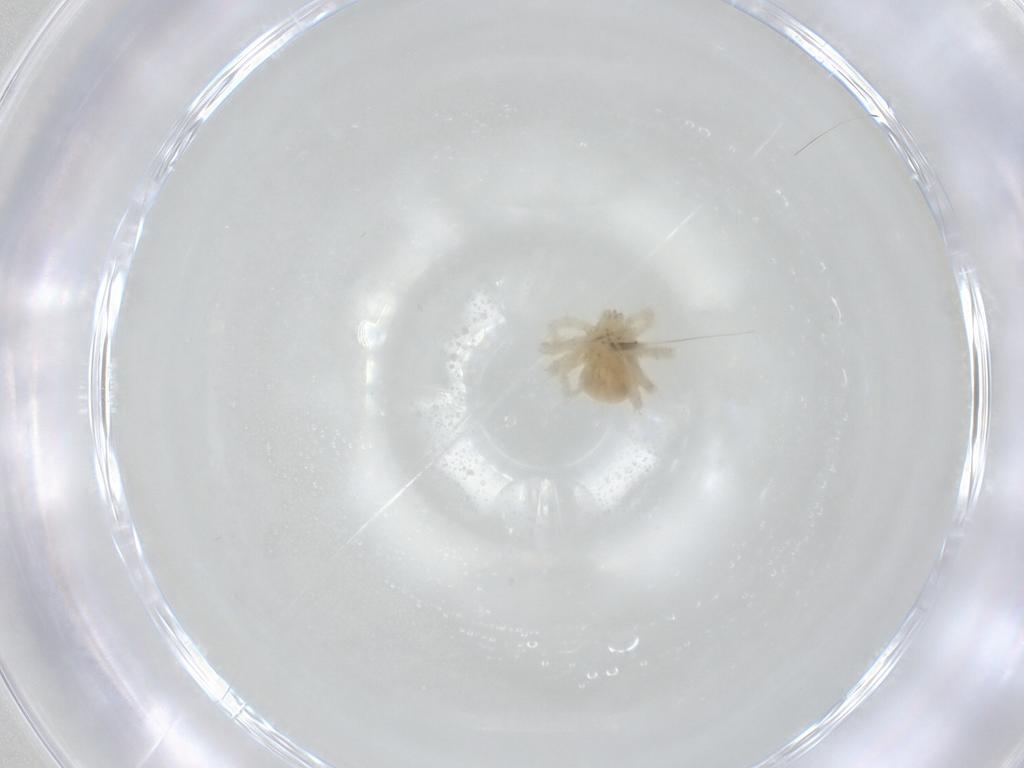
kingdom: Animalia
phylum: Arthropoda
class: Arachnida
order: Trombidiformes
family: Anystidae
